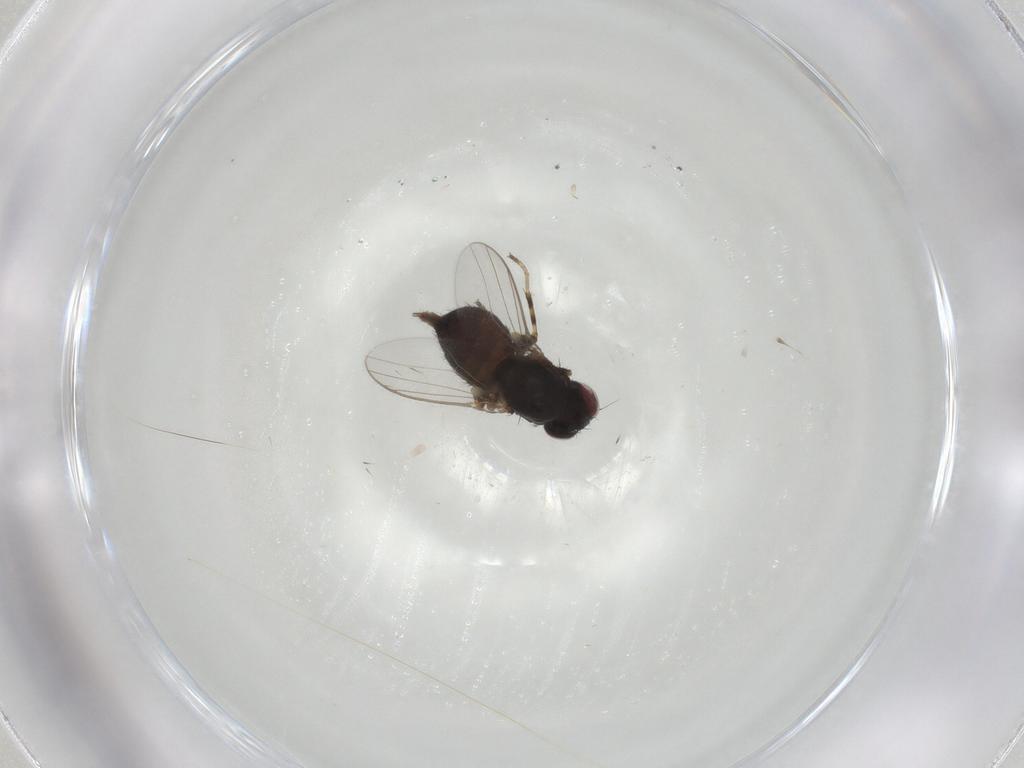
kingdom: Animalia
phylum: Arthropoda
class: Insecta
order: Diptera
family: Chloropidae
